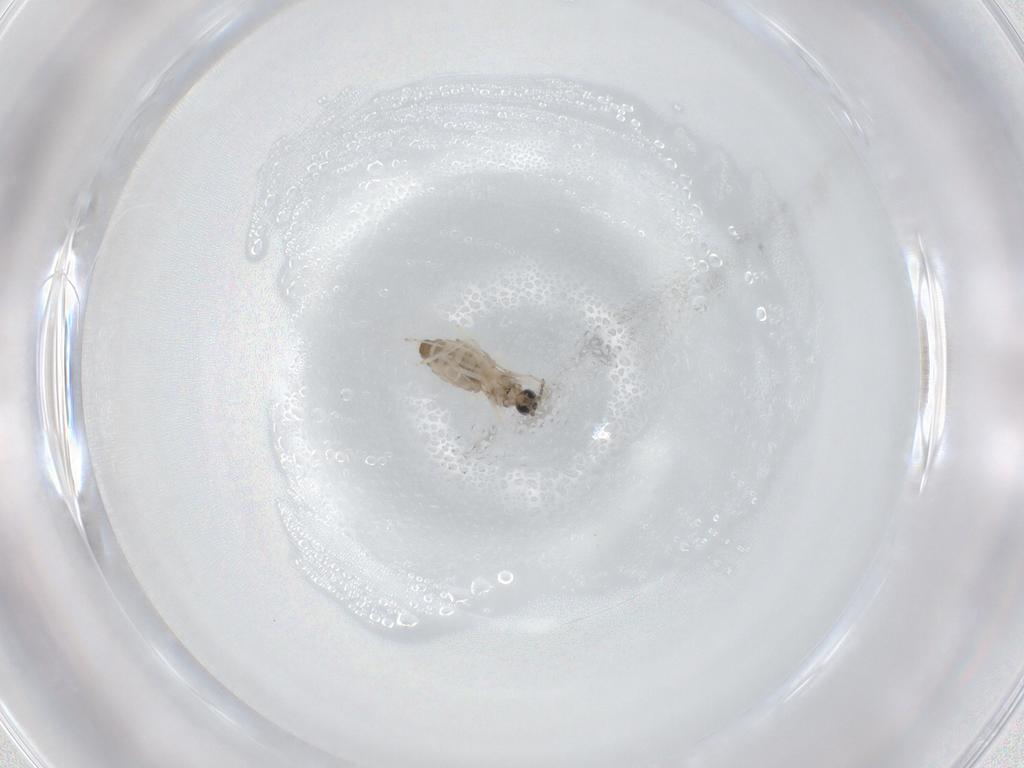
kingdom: Animalia
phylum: Arthropoda
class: Insecta
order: Diptera
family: Cecidomyiidae
